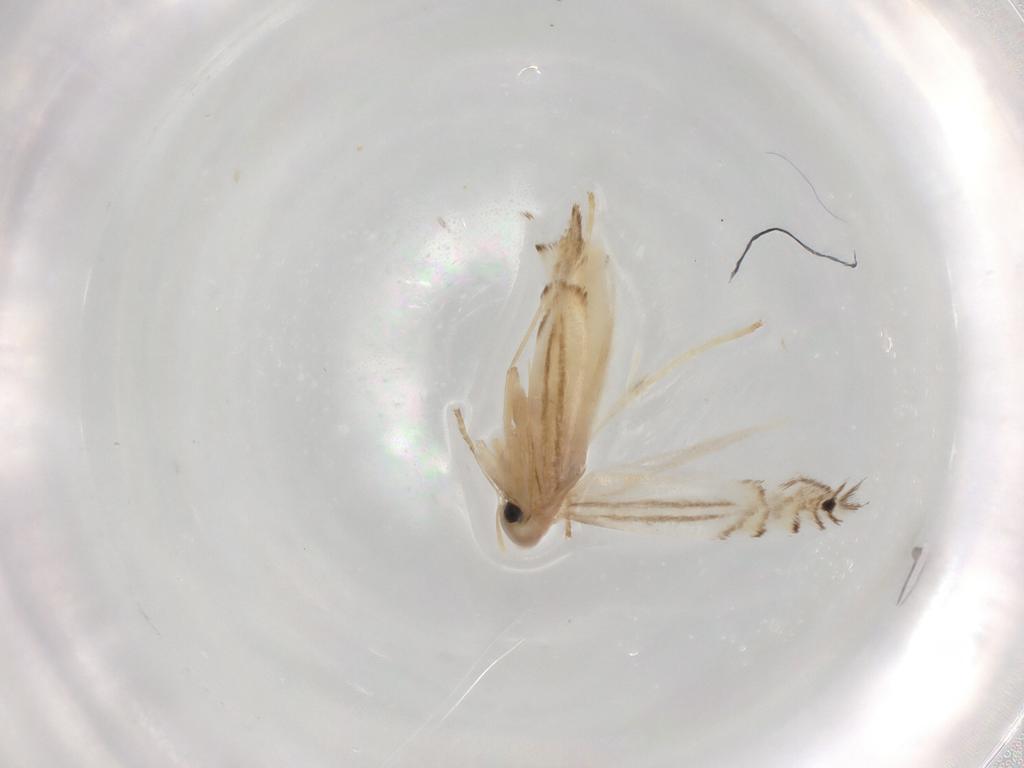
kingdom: Animalia
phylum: Arthropoda
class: Insecta
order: Lepidoptera
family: Gracillariidae
